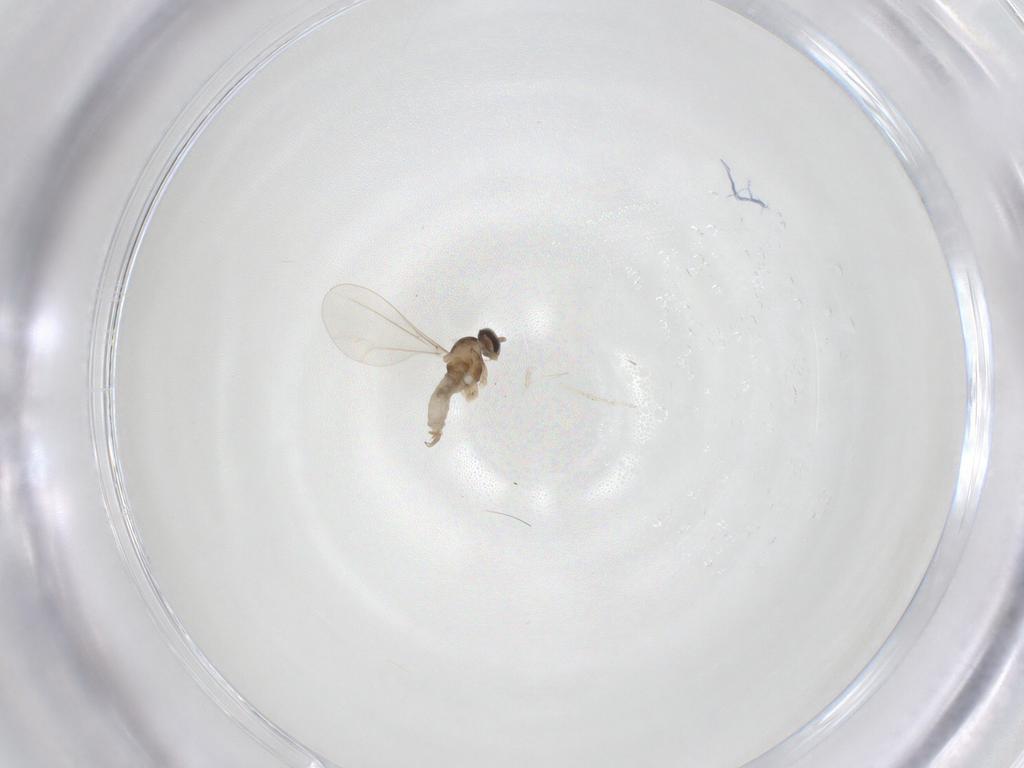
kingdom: Animalia
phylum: Arthropoda
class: Insecta
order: Diptera
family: Cecidomyiidae
